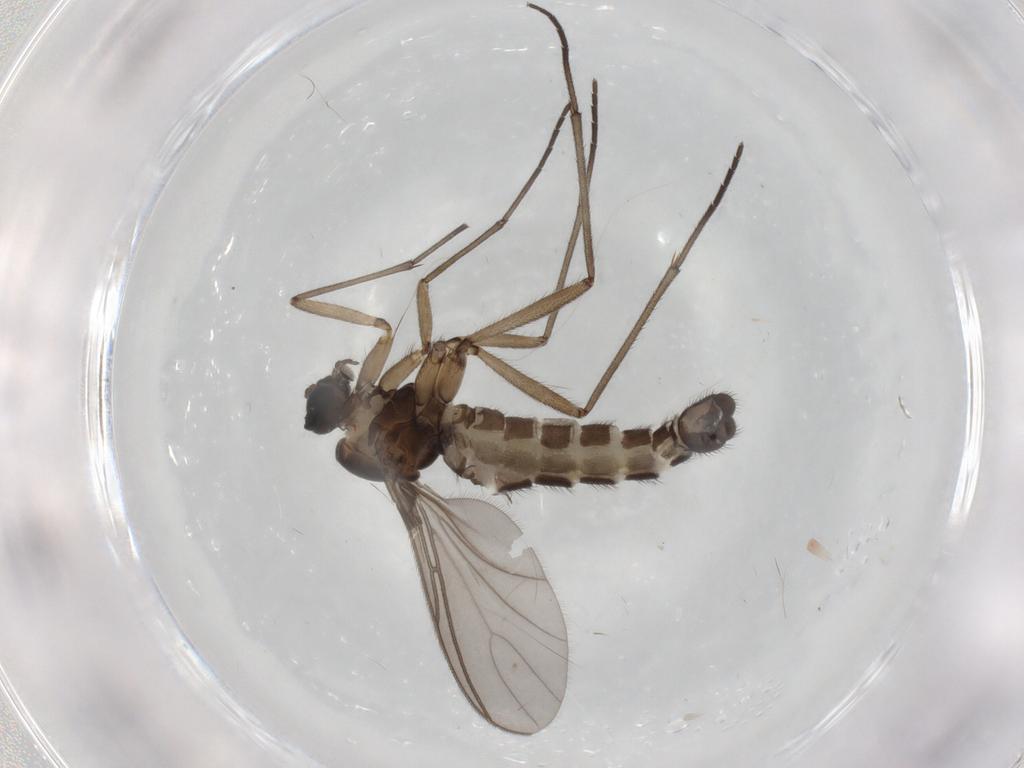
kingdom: Animalia
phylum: Arthropoda
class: Insecta
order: Diptera
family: Sciaridae
